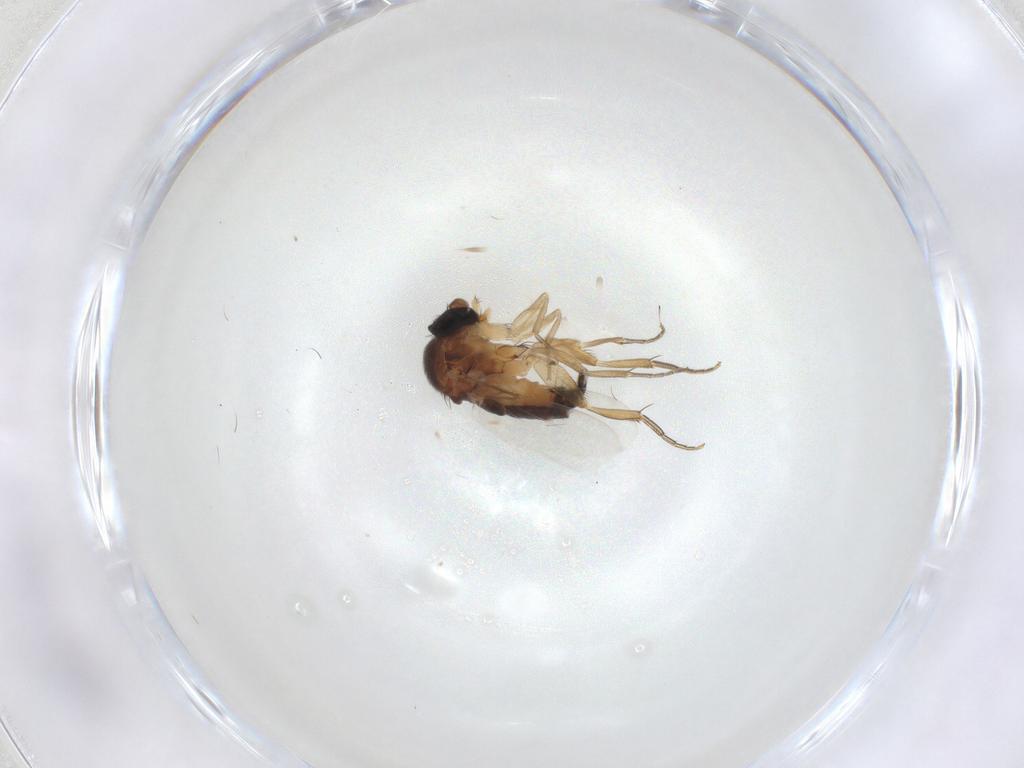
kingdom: Animalia
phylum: Arthropoda
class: Insecta
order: Diptera
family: Phoridae
